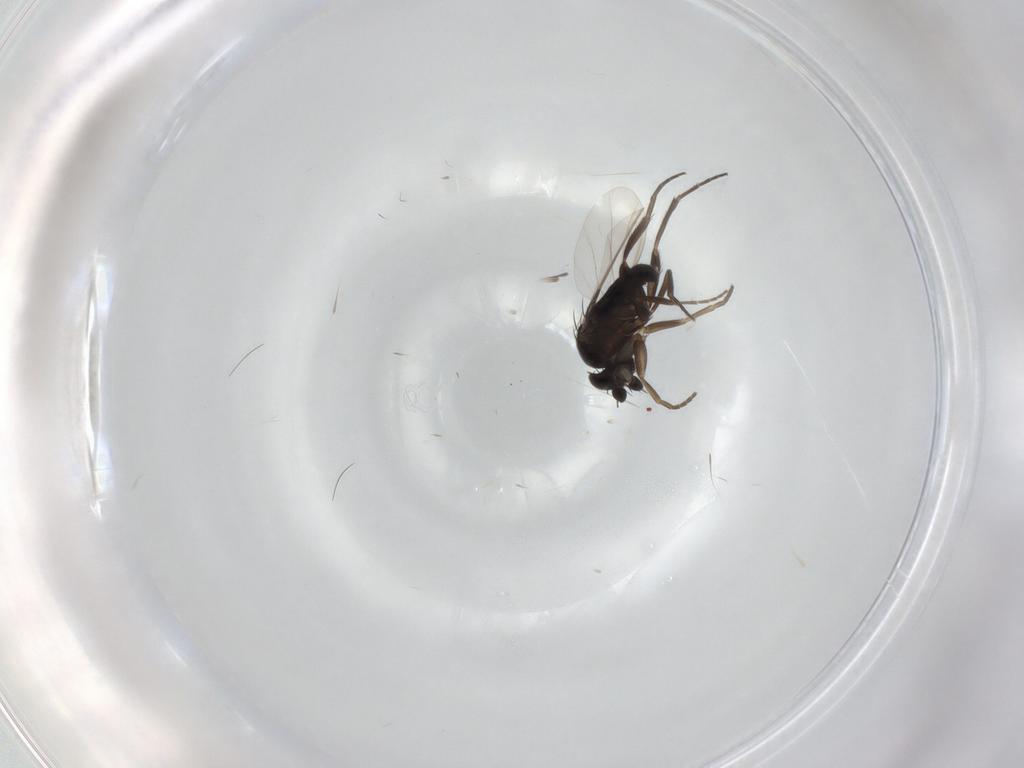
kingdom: Animalia
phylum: Arthropoda
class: Insecta
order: Diptera
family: Phoridae
